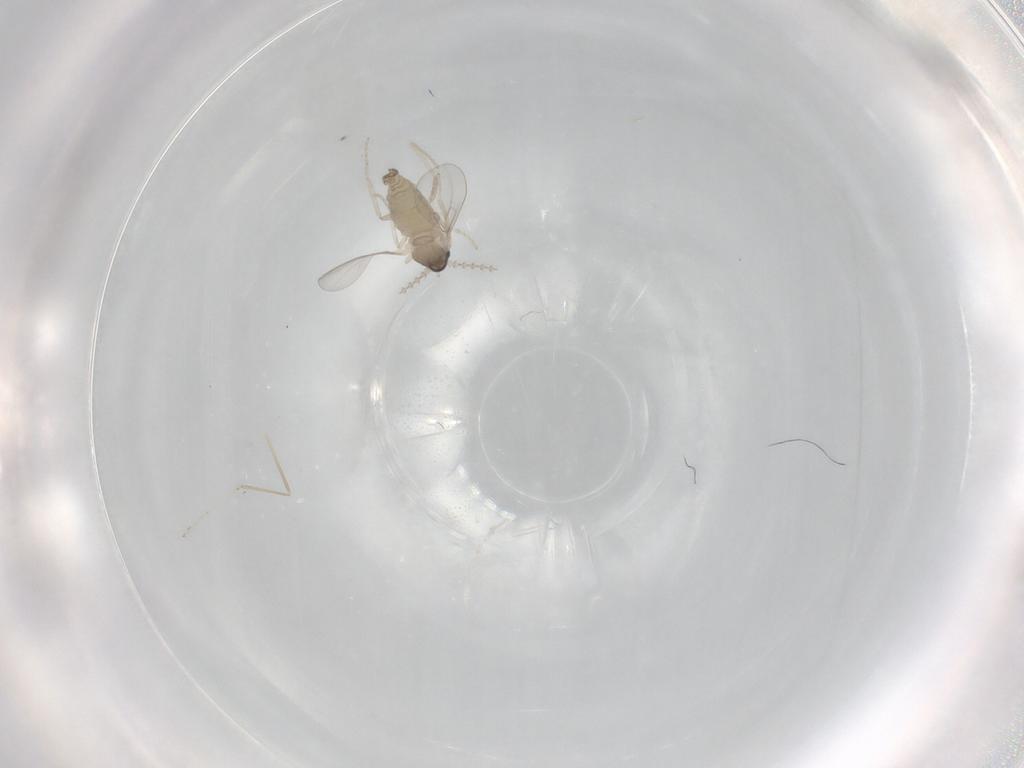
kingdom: Animalia
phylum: Arthropoda
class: Insecta
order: Diptera
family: Cecidomyiidae
